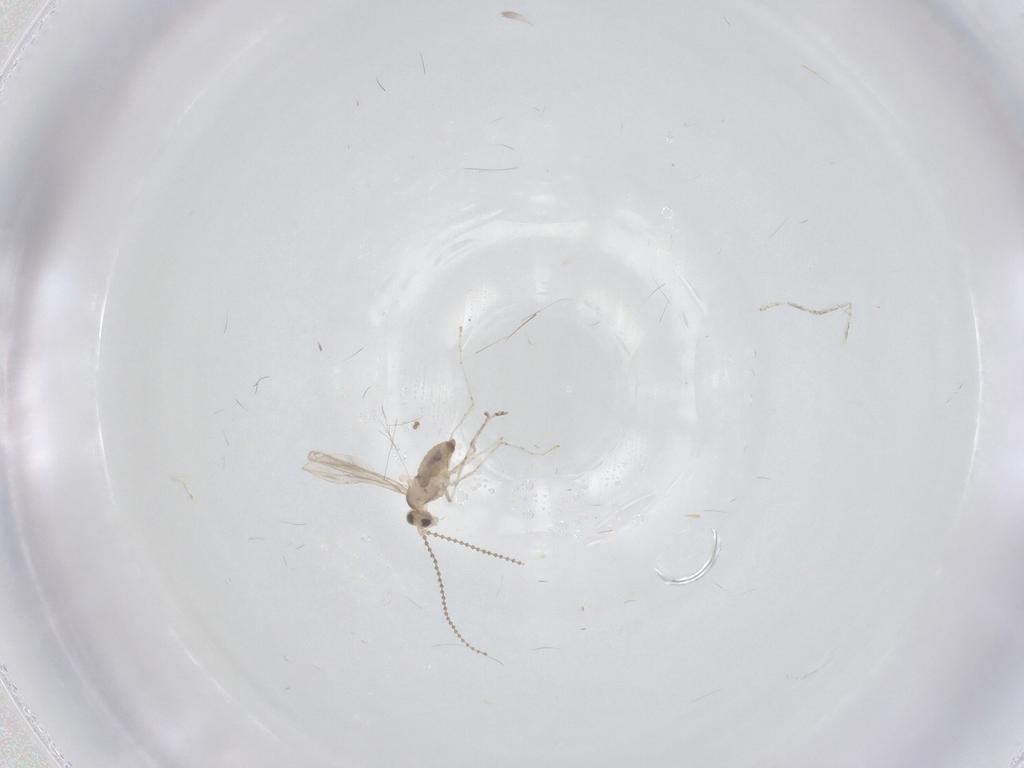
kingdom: Animalia
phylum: Arthropoda
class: Insecta
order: Diptera
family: Cecidomyiidae
